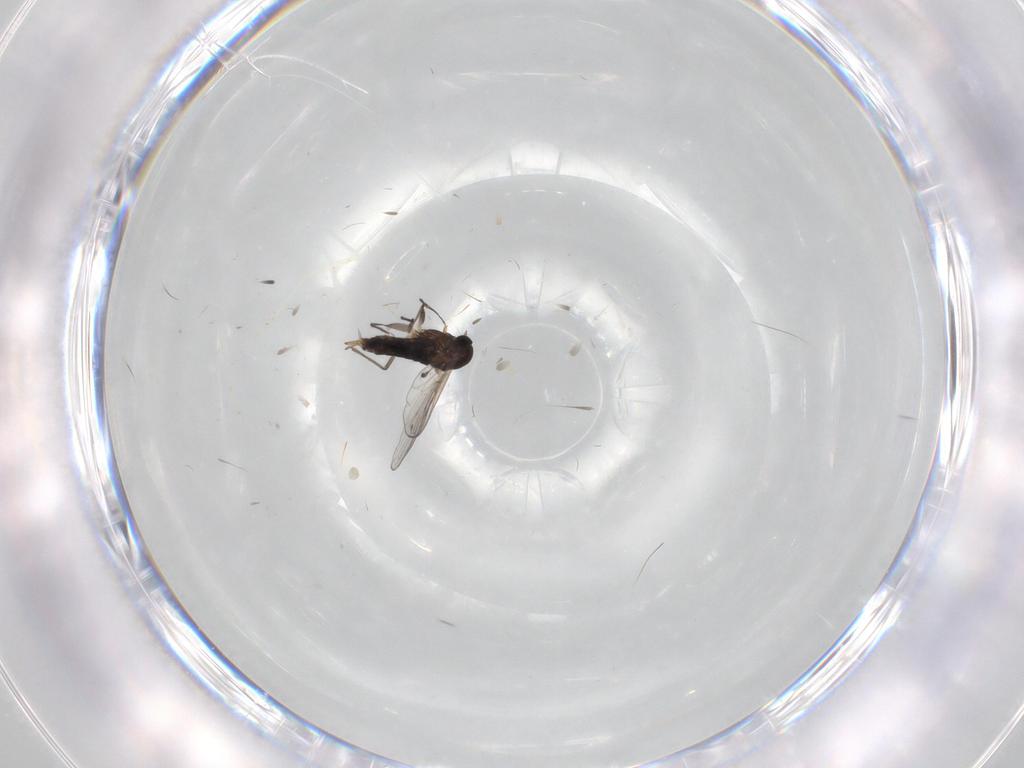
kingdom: Animalia
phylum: Arthropoda
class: Insecta
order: Diptera
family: Chironomidae
